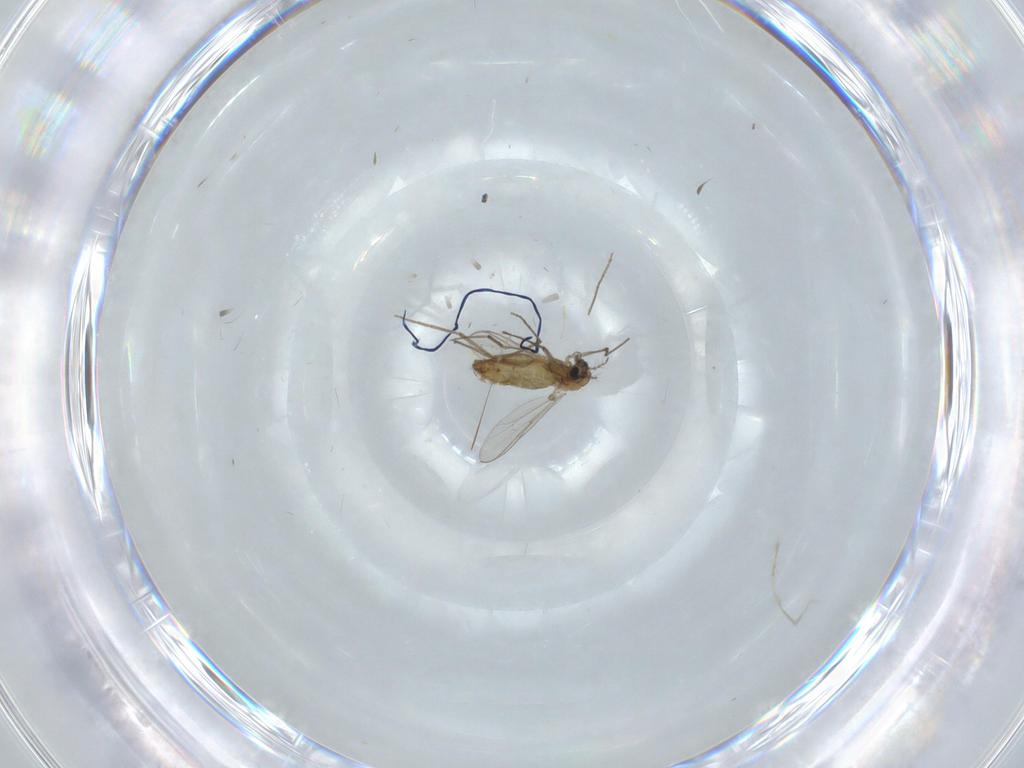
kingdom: Animalia
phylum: Arthropoda
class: Insecta
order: Diptera
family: Chironomidae
